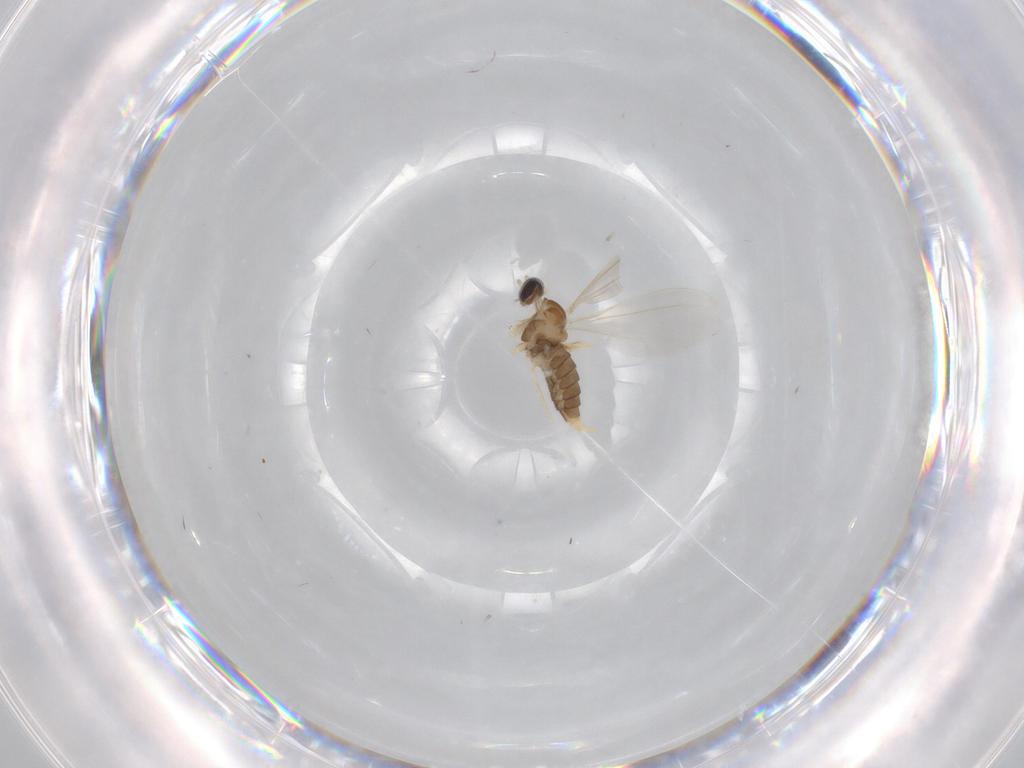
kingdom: Animalia
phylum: Arthropoda
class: Insecta
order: Diptera
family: Cecidomyiidae
